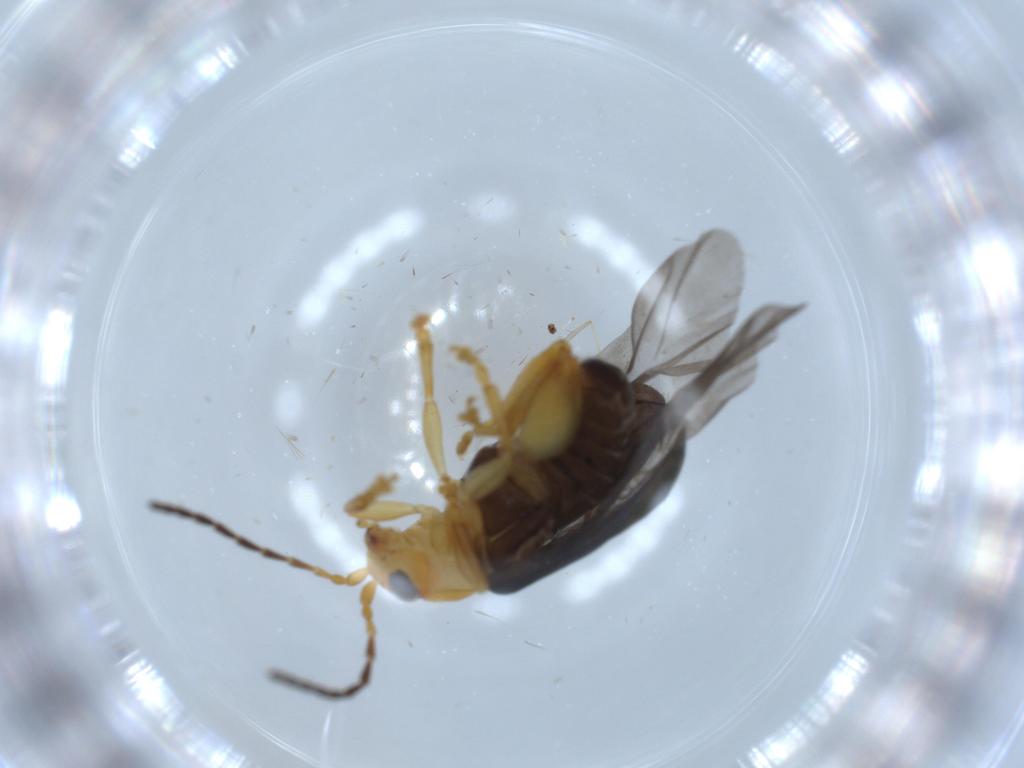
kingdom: Animalia
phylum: Arthropoda
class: Insecta
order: Coleoptera
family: Chrysomelidae
